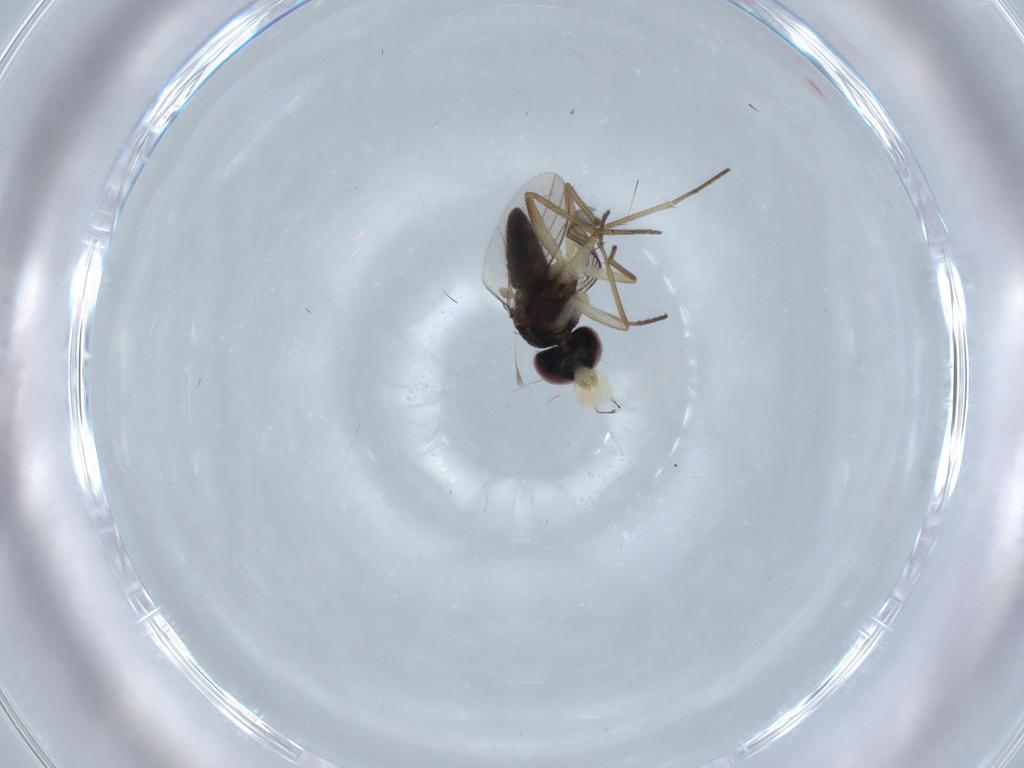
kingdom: Animalia
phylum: Arthropoda
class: Insecta
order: Diptera
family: Dolichopodidae
